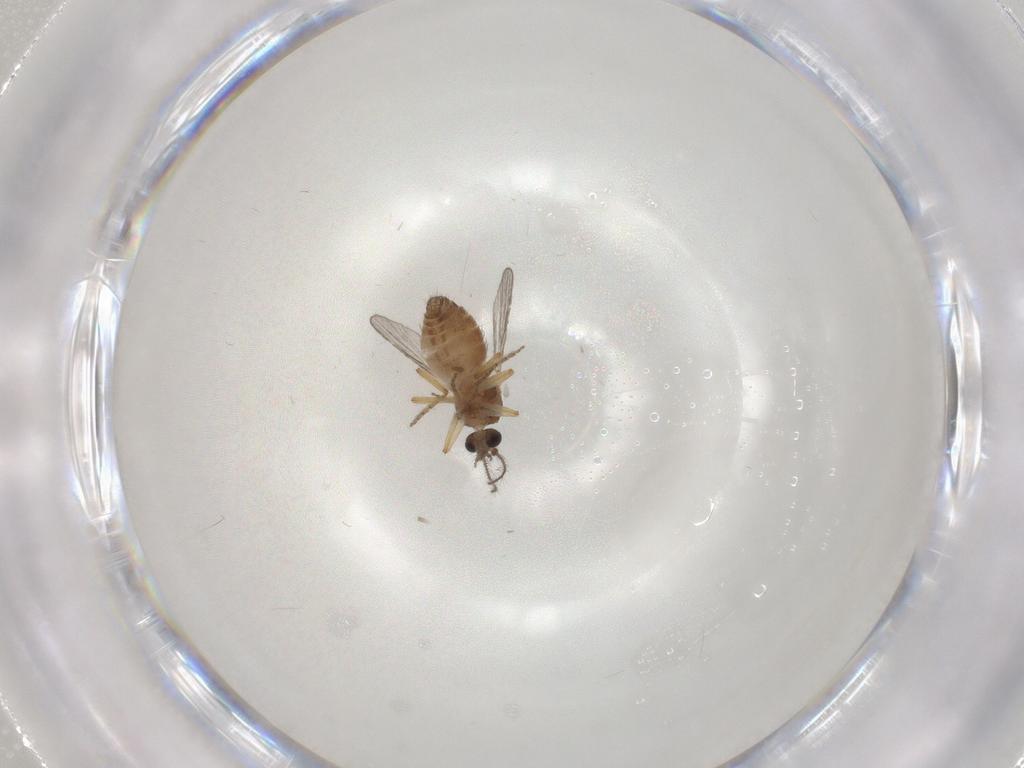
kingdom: Animalia
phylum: Arthropoda
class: Insecta
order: Diptera
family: Ceratopogonidae
